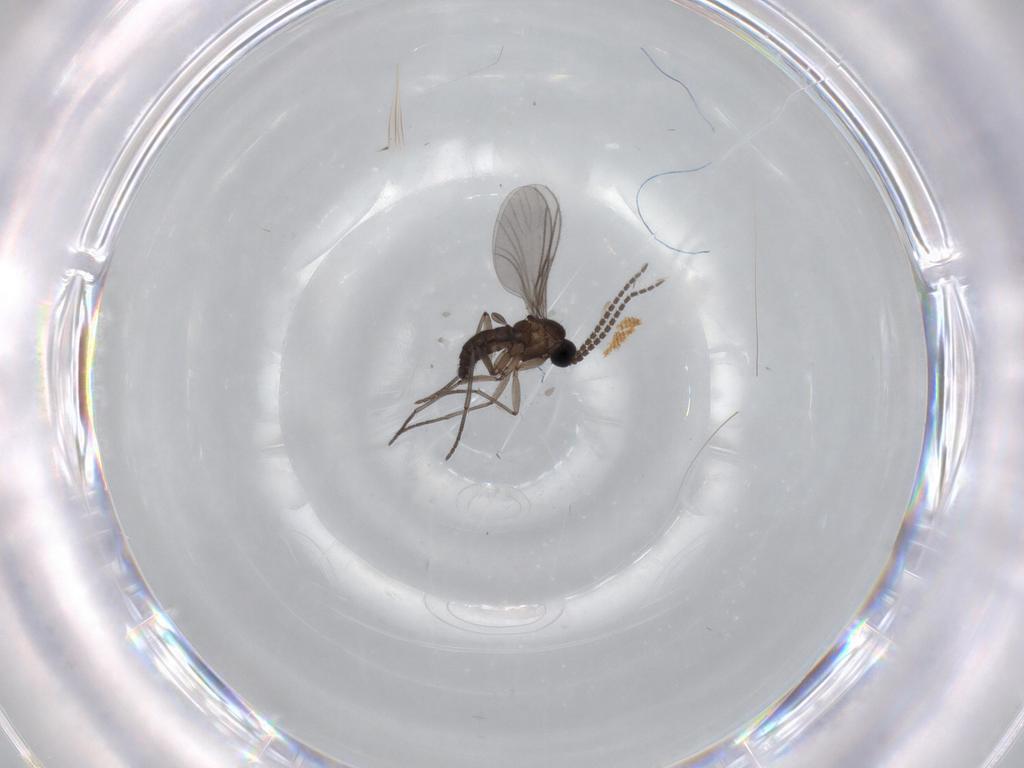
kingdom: Animalia
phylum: Arthropoda
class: Insecta
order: Diptera
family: Sciaridae
